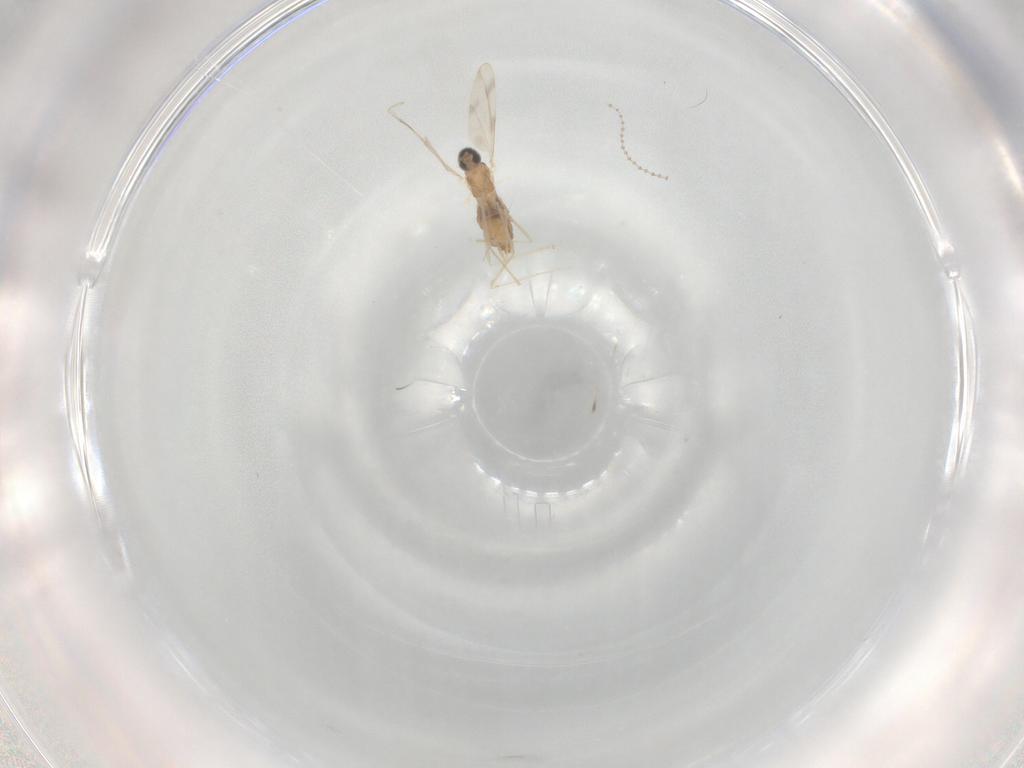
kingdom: Animalia
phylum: Arthropoda
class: Insecta
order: Diptera
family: Cecidomyiidae
